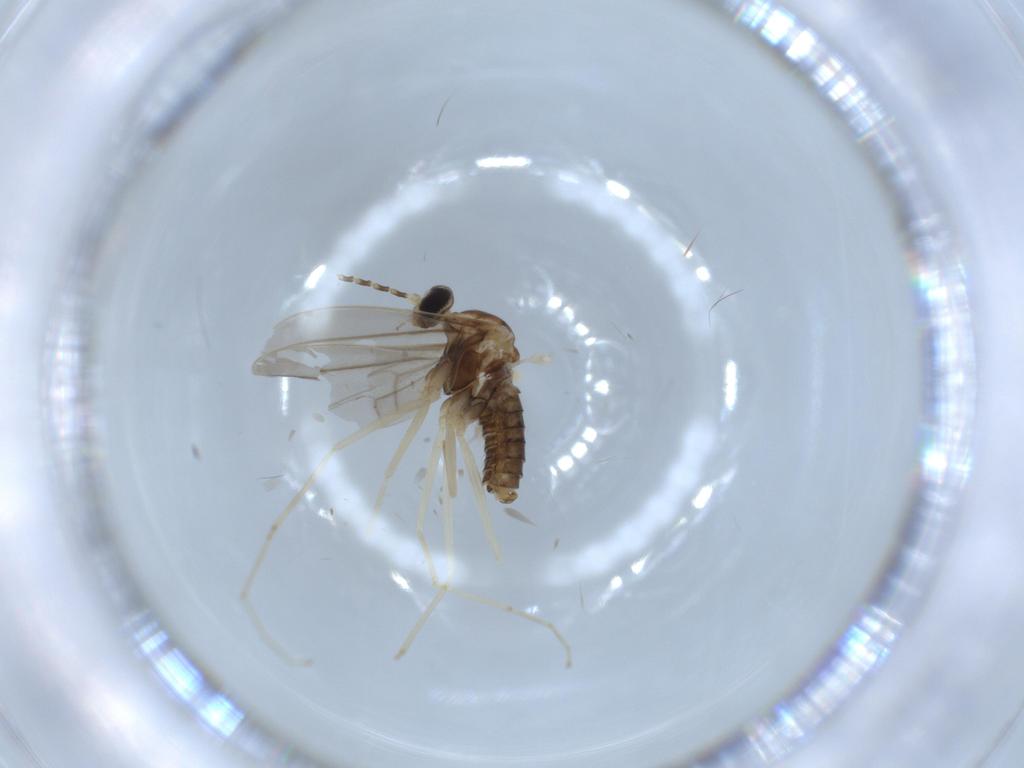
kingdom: Animalia
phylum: Arthropoda
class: Insecta
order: Diptera
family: Cecidomyiidae
